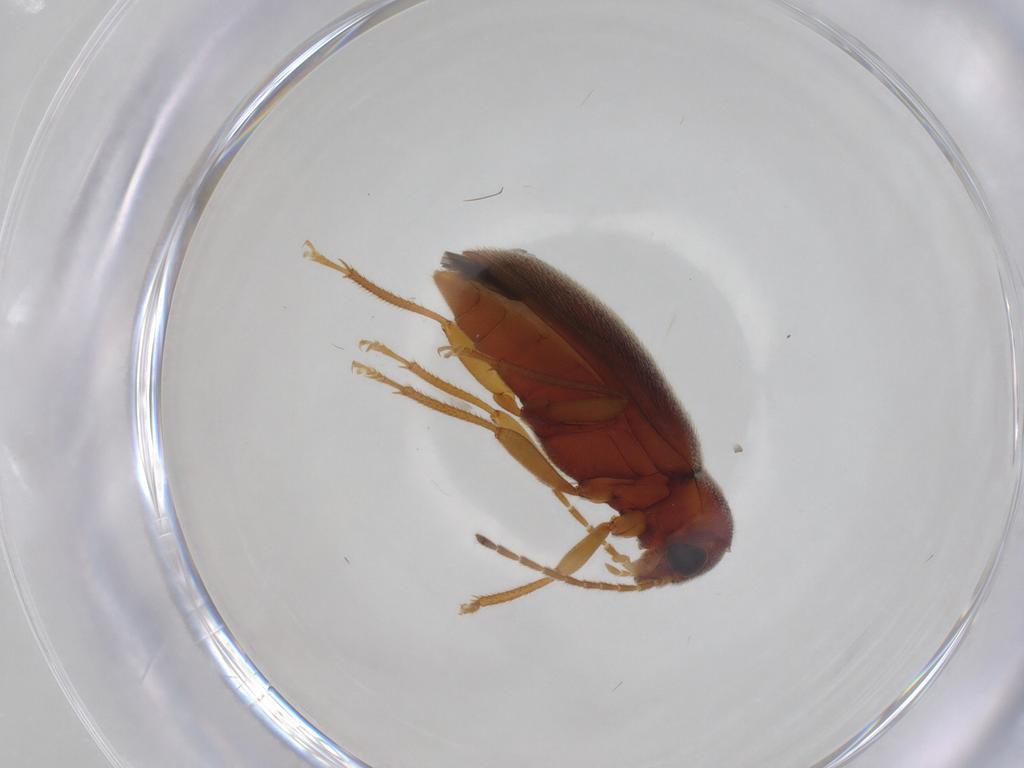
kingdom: Animalia
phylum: Arthropoda
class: Insecta
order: Coleoptera
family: Ptilodactylidae
